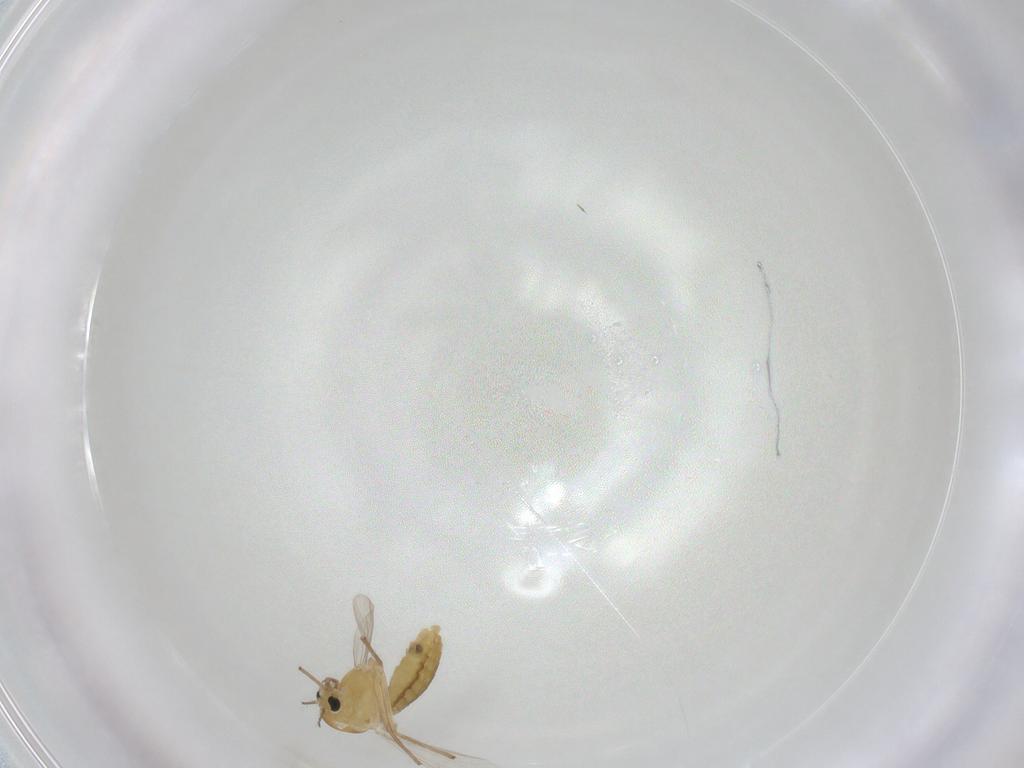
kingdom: Animalia
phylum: Arthropoda
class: Insecta
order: Diptera
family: Chironomidae
